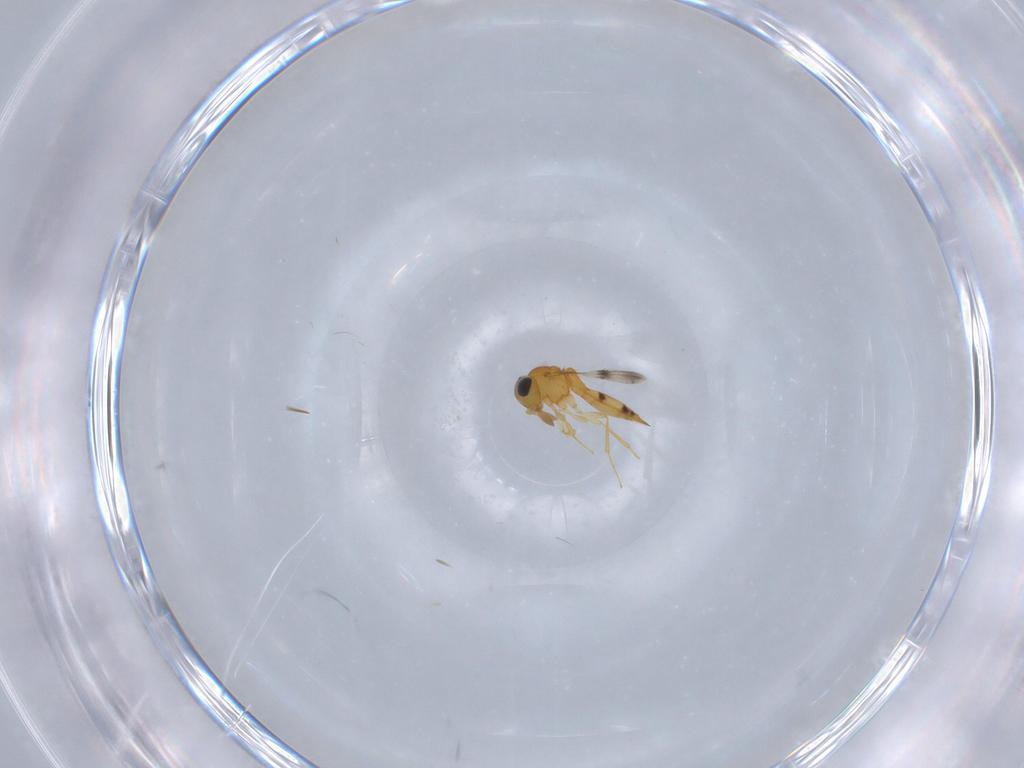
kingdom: Animalia
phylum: Arthropoda
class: Insecta
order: Hymenoptera
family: Scelionidae
